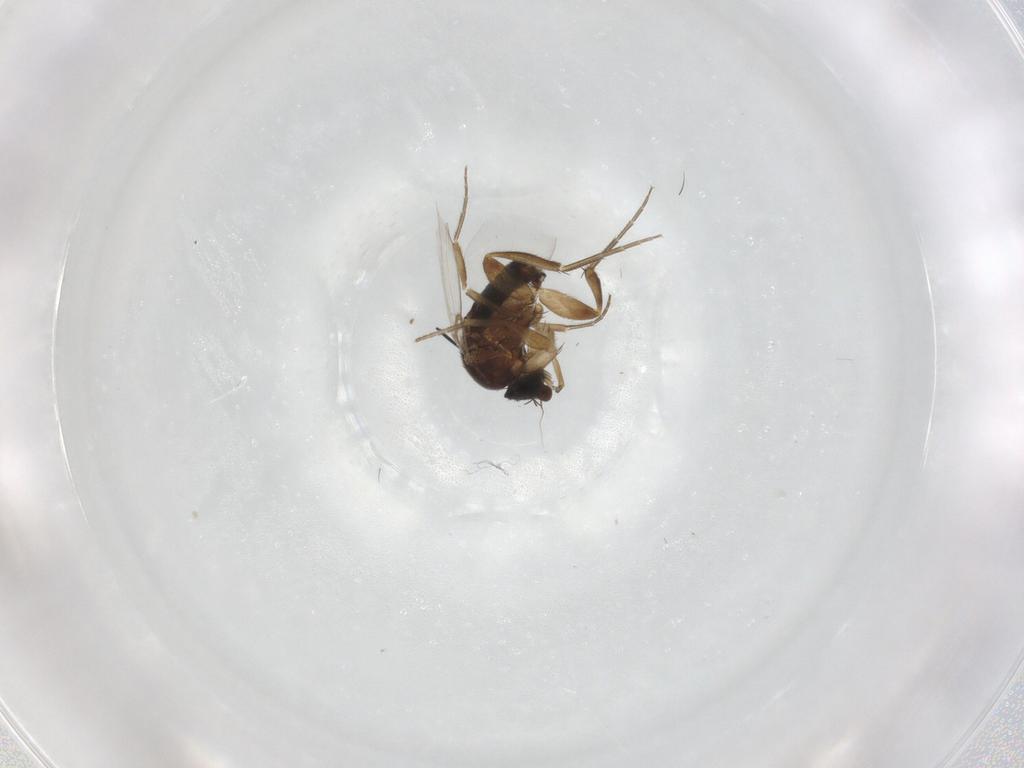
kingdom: Animalia
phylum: Arthropoda
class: Insecta
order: Diptera
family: Phoridae
